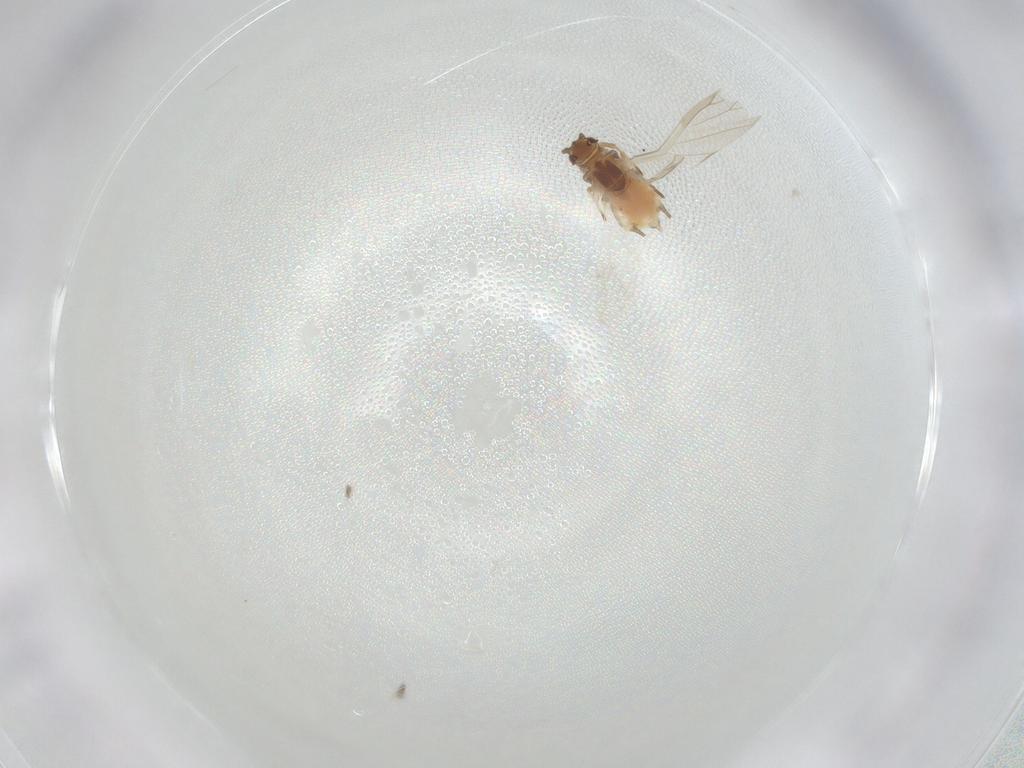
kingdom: Animalia
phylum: Arthropoda
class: Insecta
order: Hemiptera
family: Aphididae
